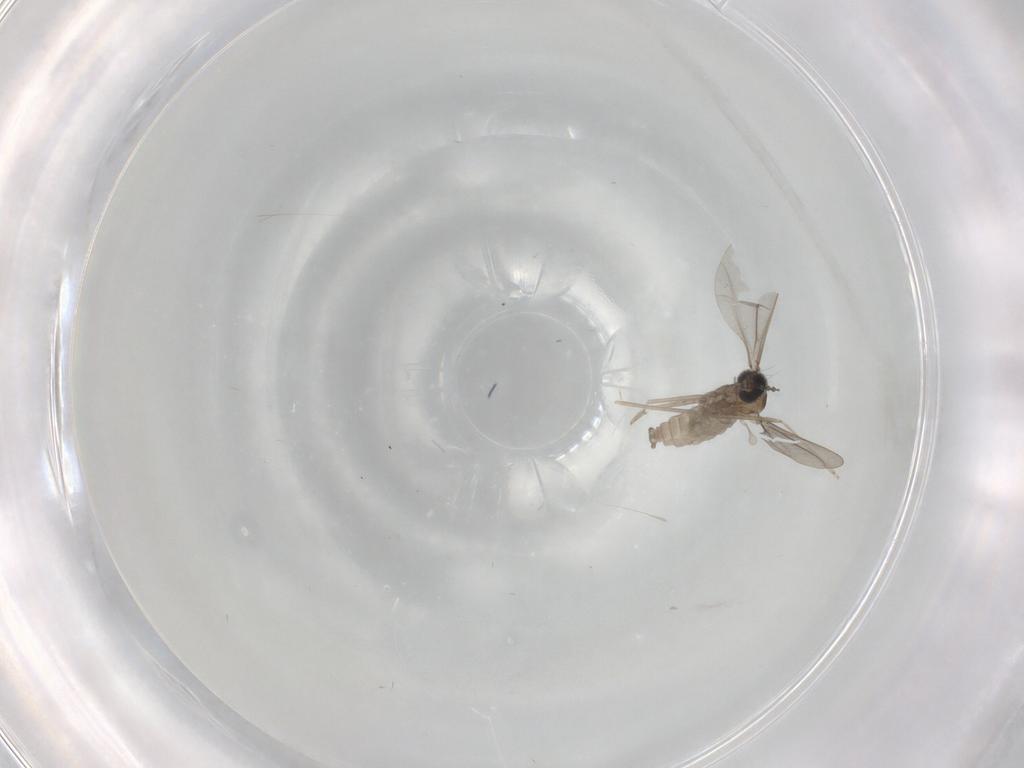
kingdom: Animalia
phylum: Arthropoda
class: Insecta
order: Diptera
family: Cecidomyiidae
